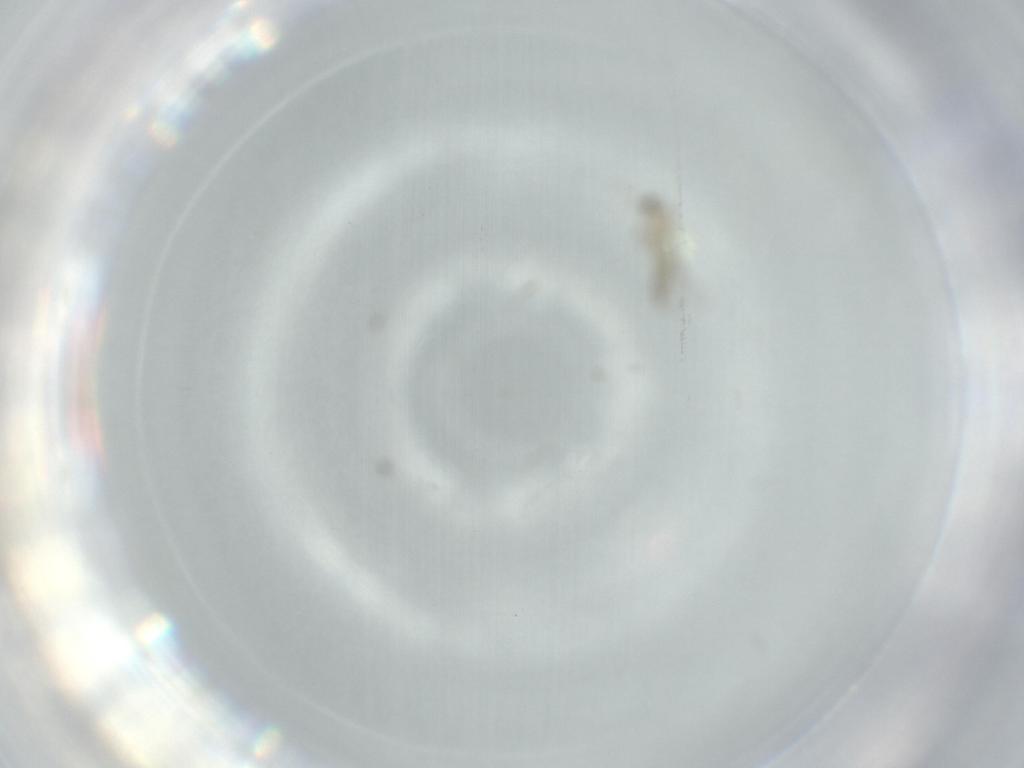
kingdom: Animalia
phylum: Arthropoda
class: Insecta
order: Diptera
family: Cecidomyiidae
